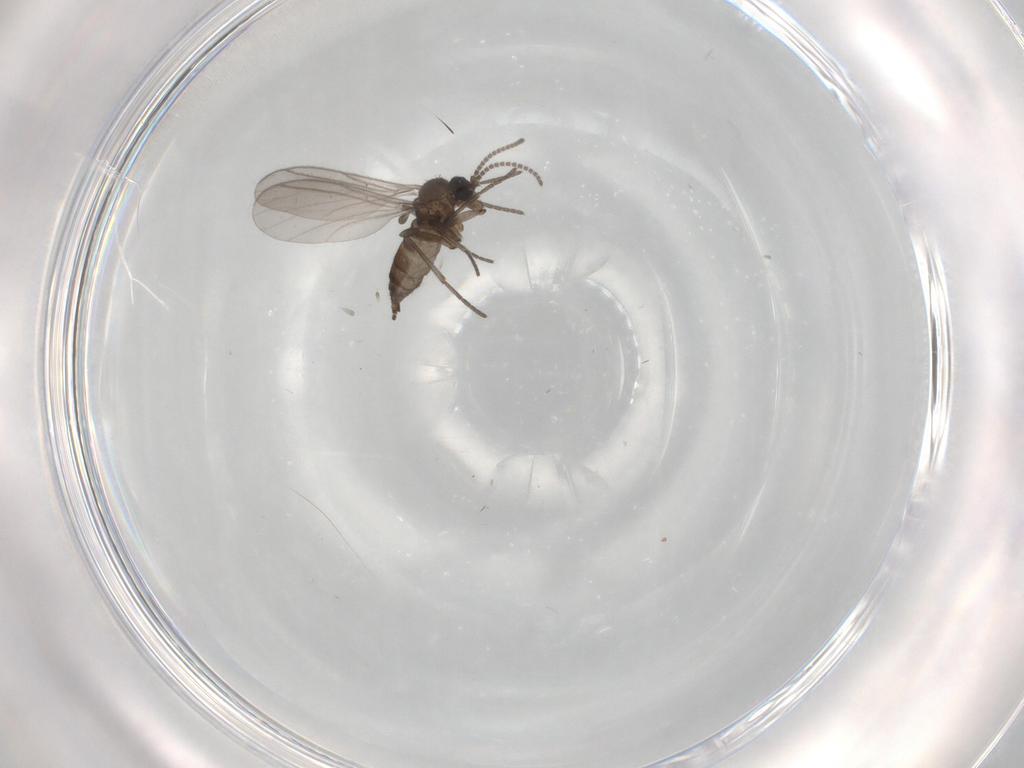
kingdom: Animalia
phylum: Arthropoda
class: Insecta
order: Diptera
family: Sciaridae
